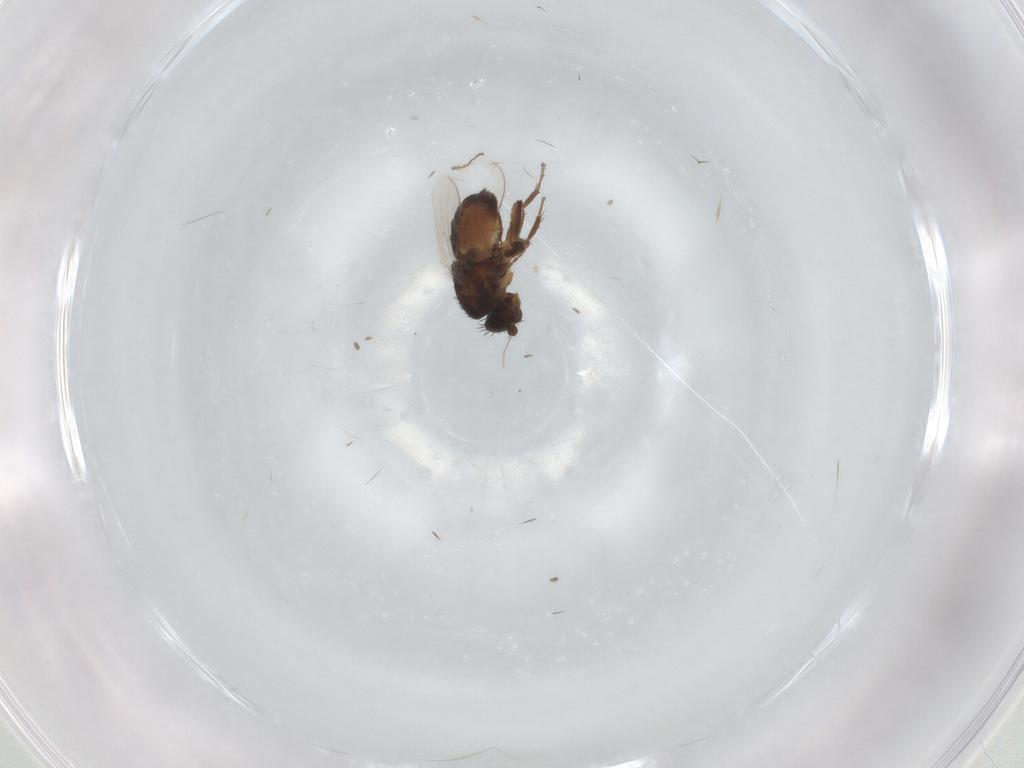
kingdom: Animalia
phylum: Arthropoda
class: Insecta
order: Diptera
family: Sphaeroceridae
